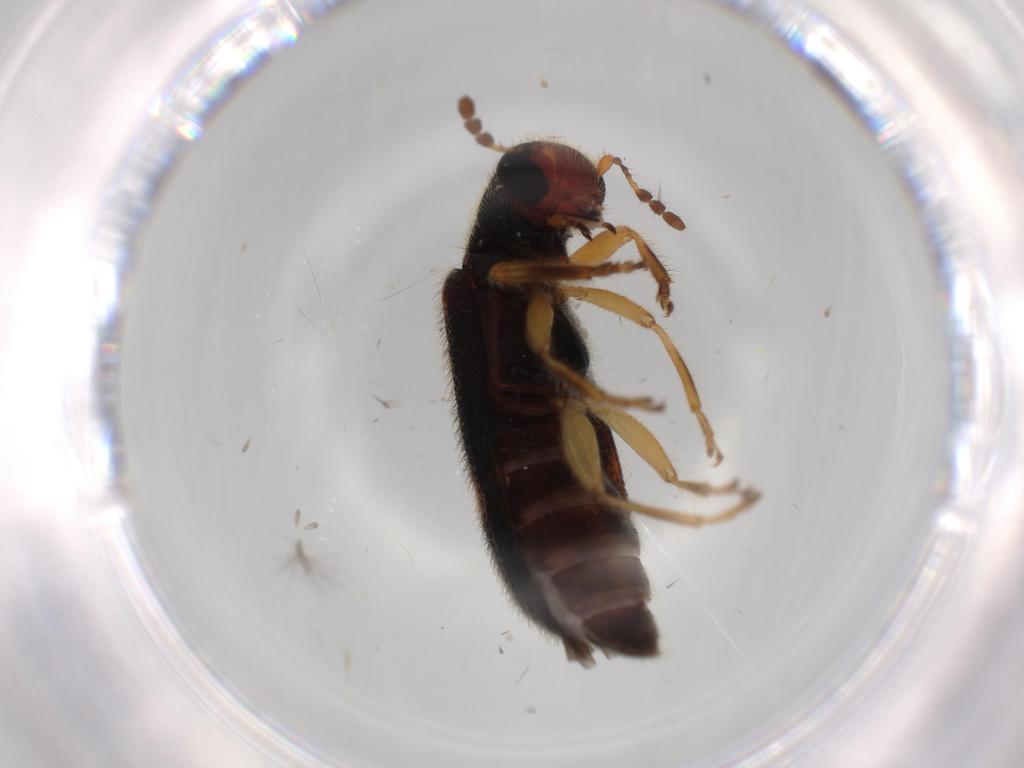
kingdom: Animalia
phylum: Arthropoda
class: Insecta
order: Coleoptera
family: Cleridae
